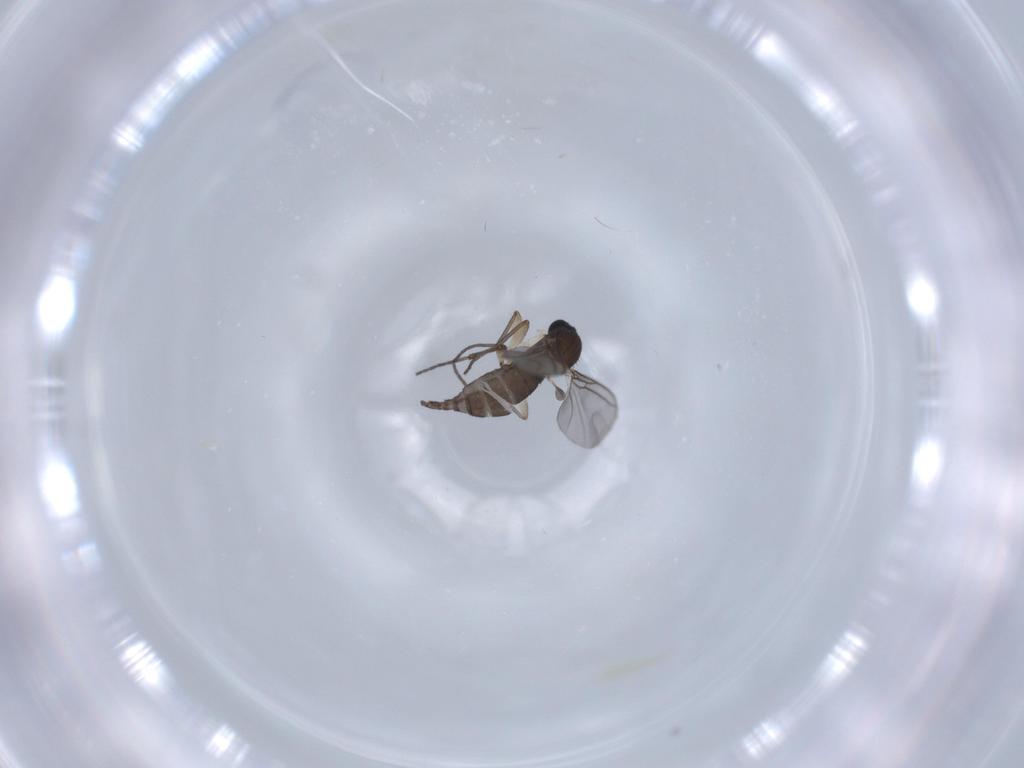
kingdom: Animalia
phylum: Arthropoda
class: Insecta
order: Diptera
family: Sciaridae
